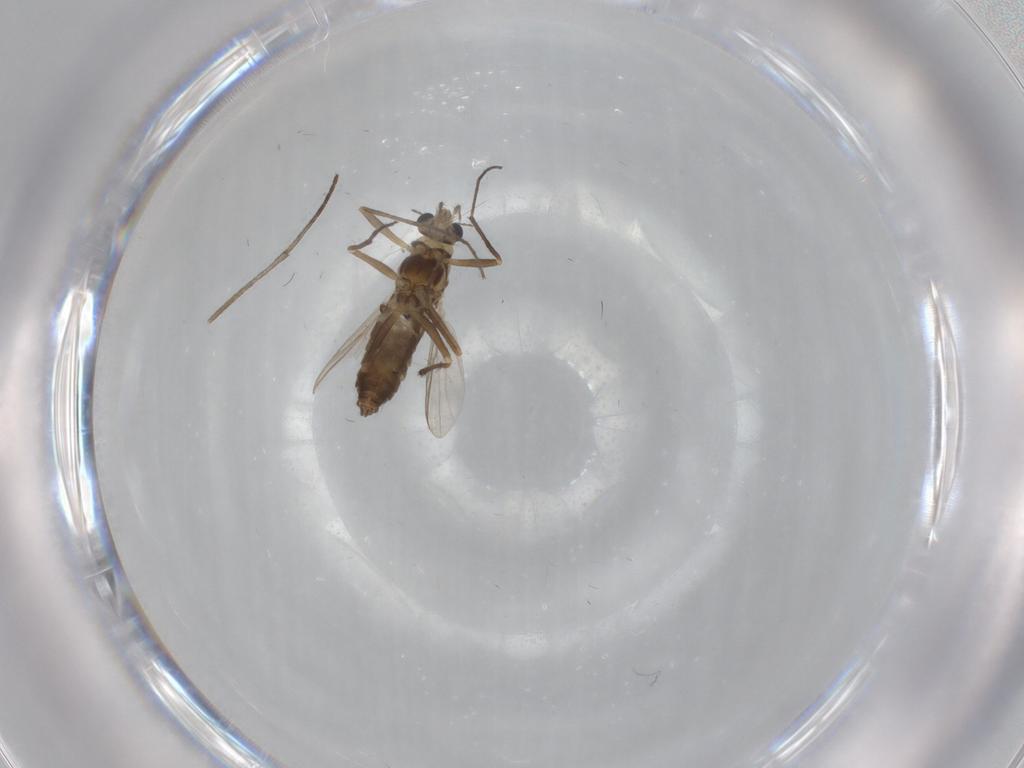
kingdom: Animalia
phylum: Arthropoda
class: Insecta
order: Diptera
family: Chironomidae
